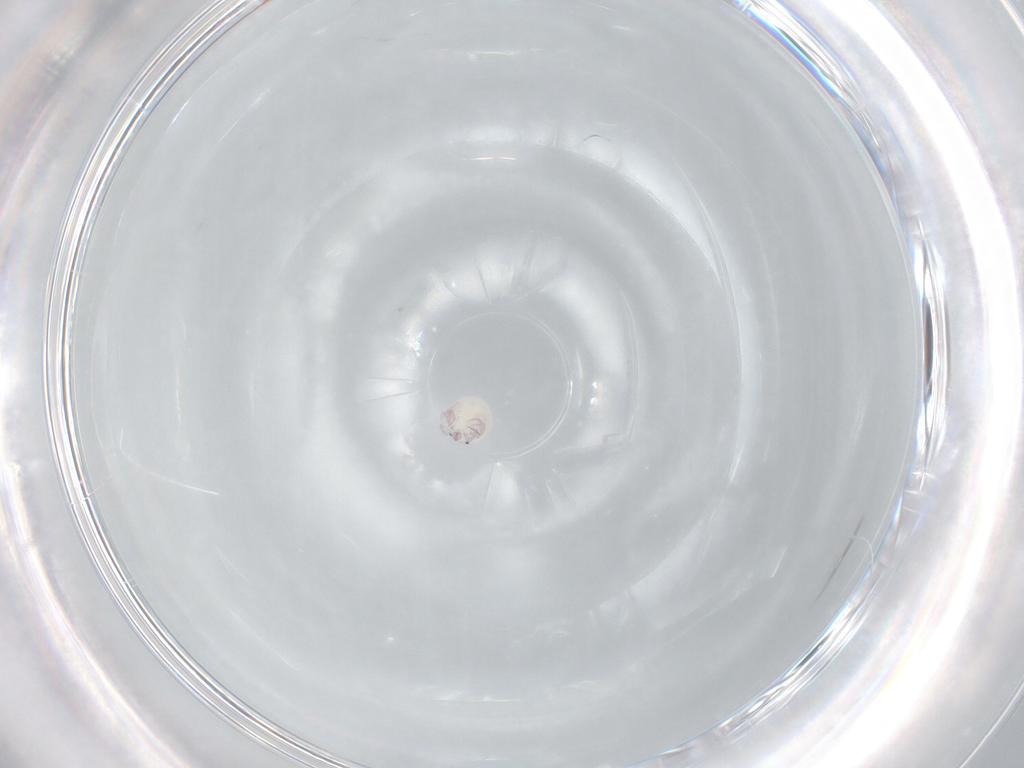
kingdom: Animalia
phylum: Arthropoda
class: Arachnida
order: Trombidiformes
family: Arrenuridae
